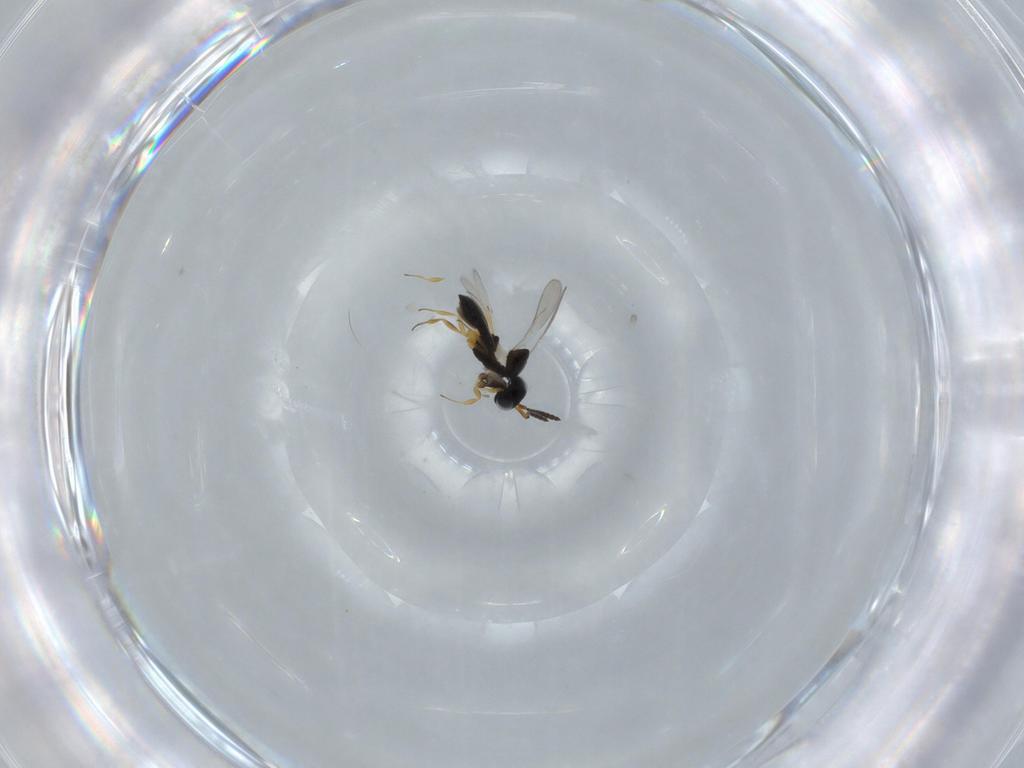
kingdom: Animalia
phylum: Arthropoda
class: Insecta
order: Hymenoptera
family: Scelionidae
